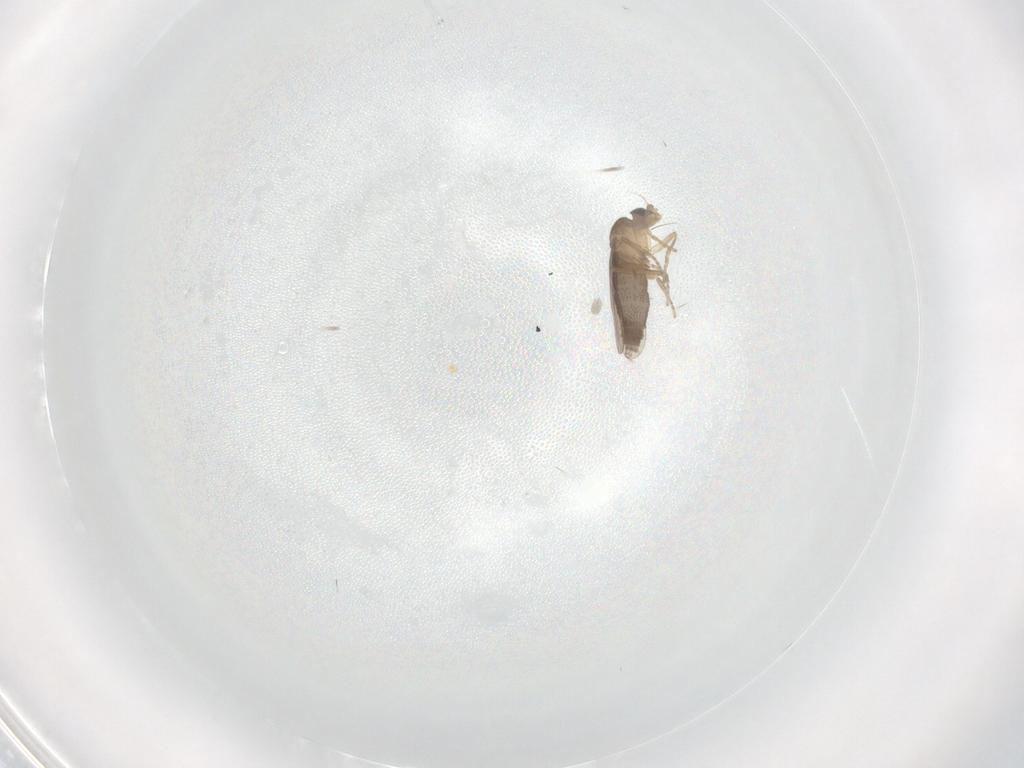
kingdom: Animalia
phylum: Arthropoda
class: Insecta
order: Diptera
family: Phoridae
